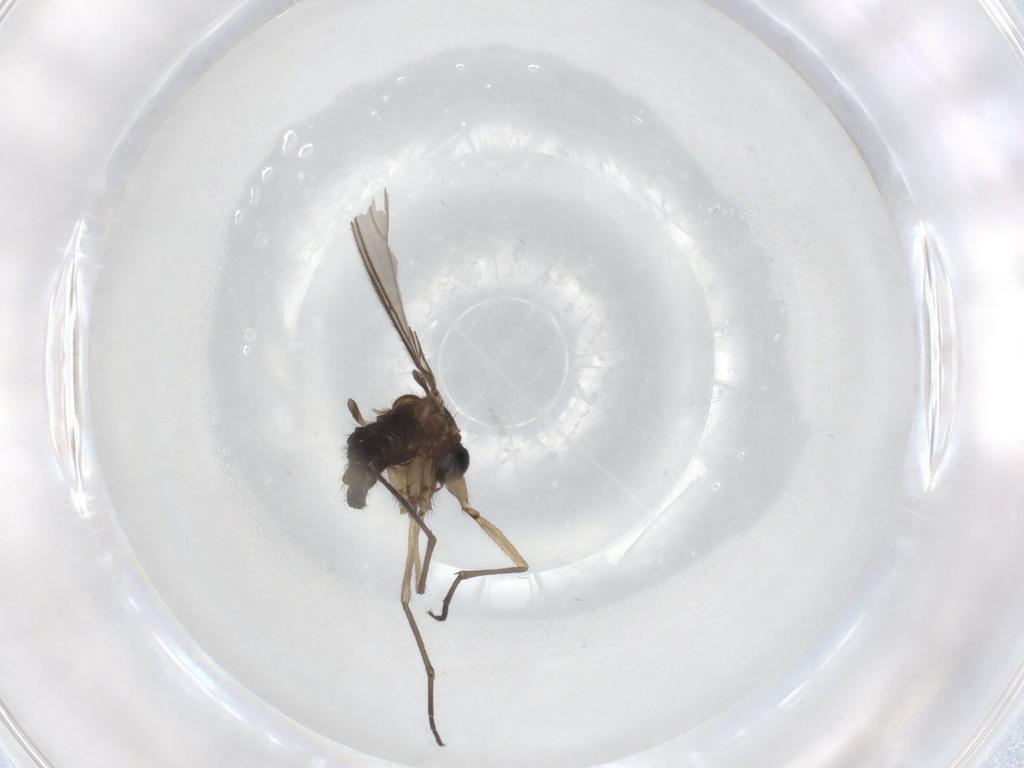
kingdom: Animalia
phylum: Arthropoda
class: Insecta
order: Diptera
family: Sciaridae
